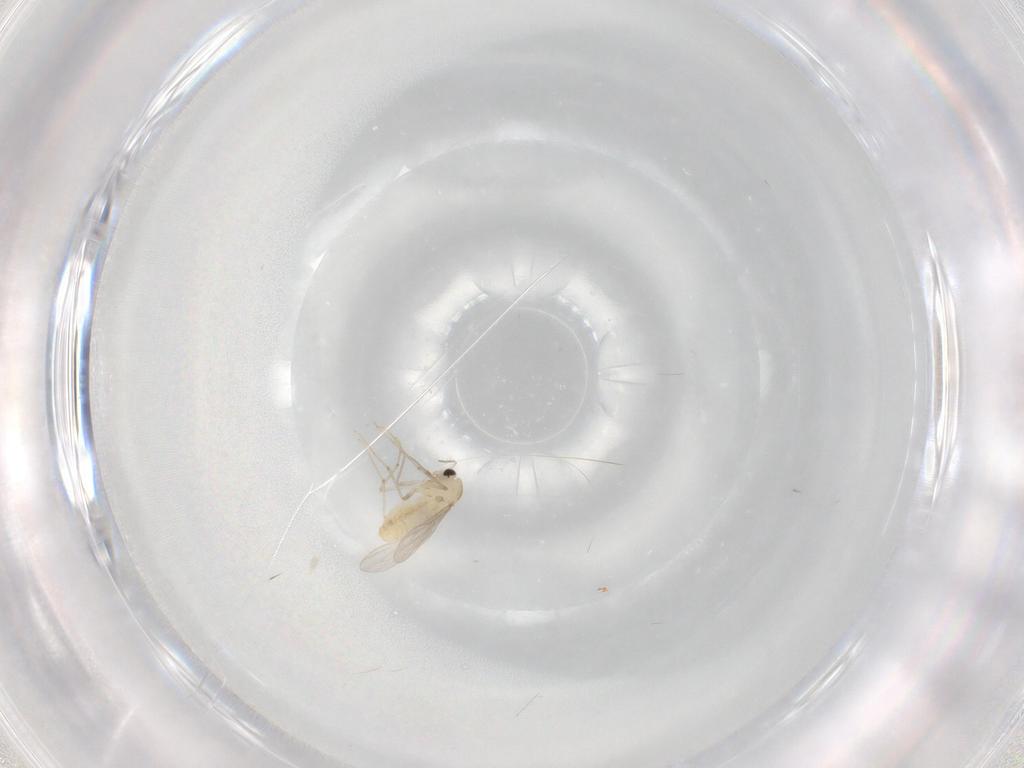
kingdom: Animalia
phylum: Arthropoda
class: Insecta
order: Diptera
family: Chironomidae
